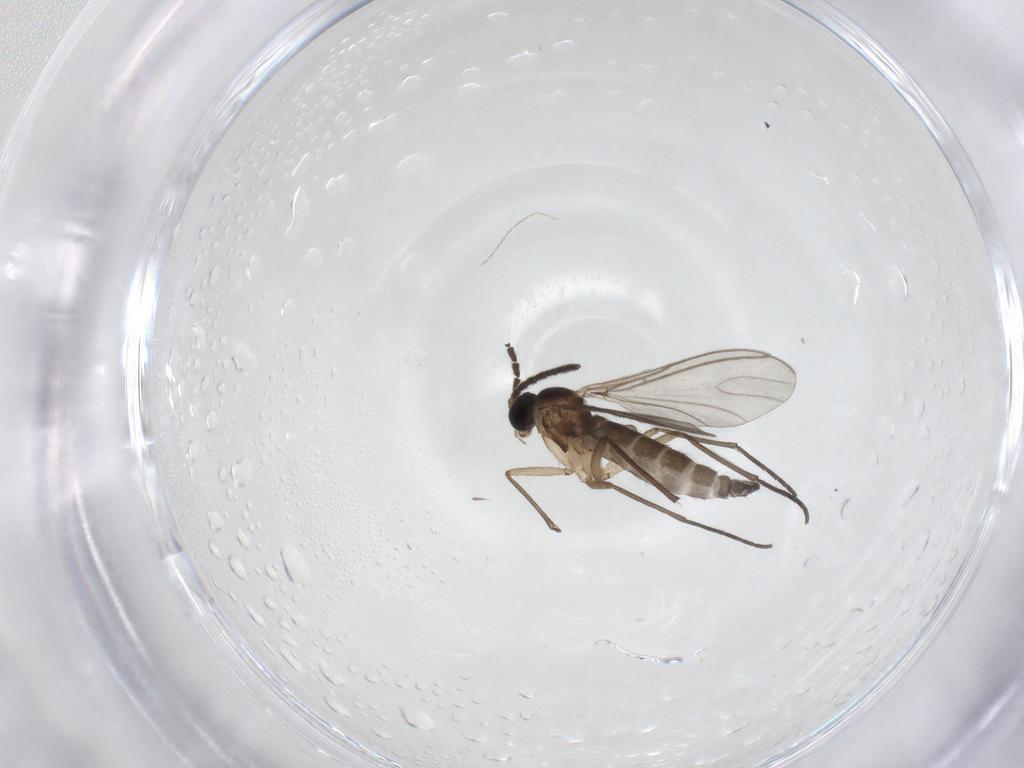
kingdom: Animalia
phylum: Arthropoda
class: Insecta
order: Diptera
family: Sciaridae
